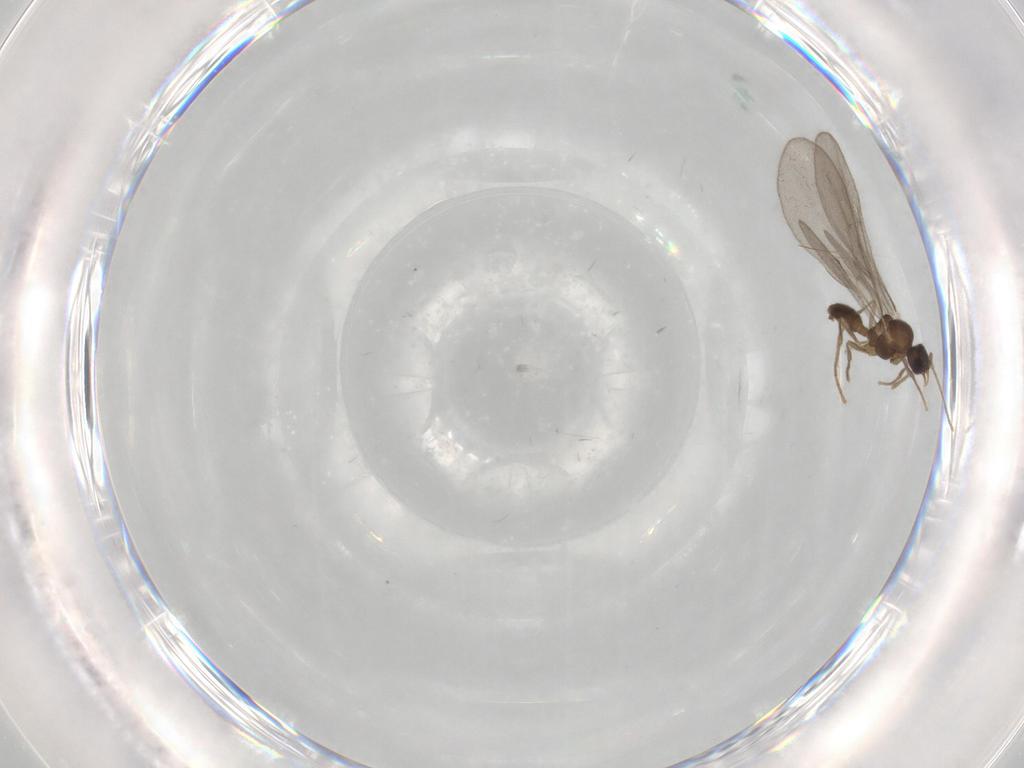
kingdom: Animalia
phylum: Arthropoda
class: Insecta
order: Hymenoptera
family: Formicidae
